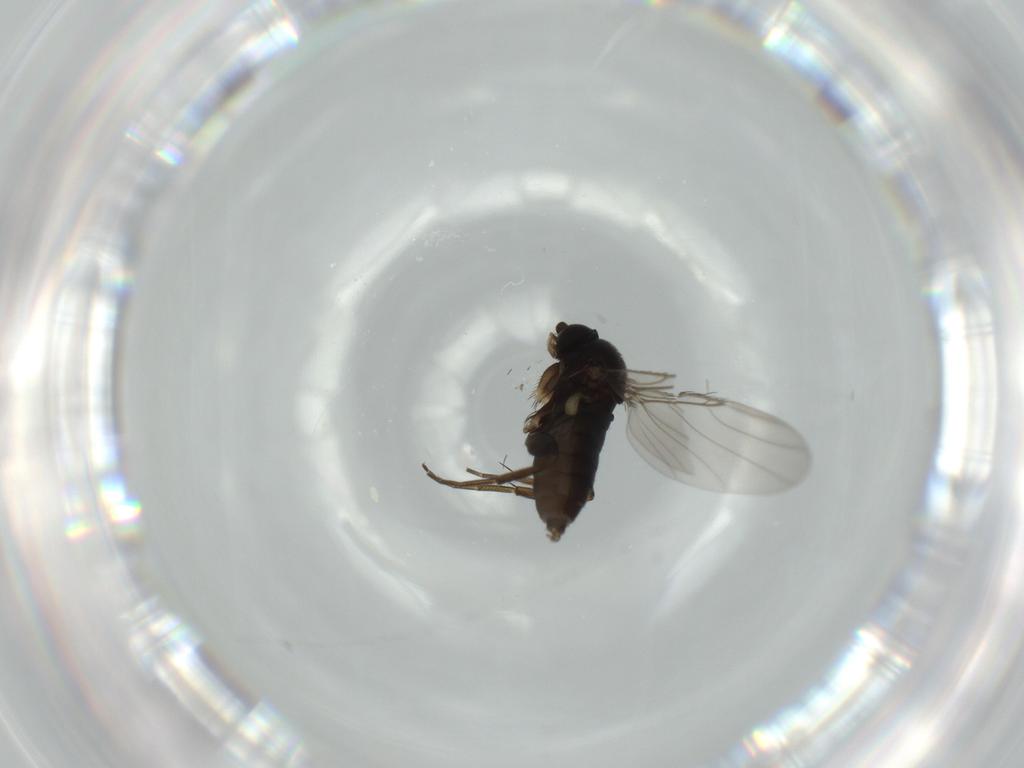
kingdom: Animalia
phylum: Arthropoda
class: Insecta
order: Diptera
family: Phoridae
